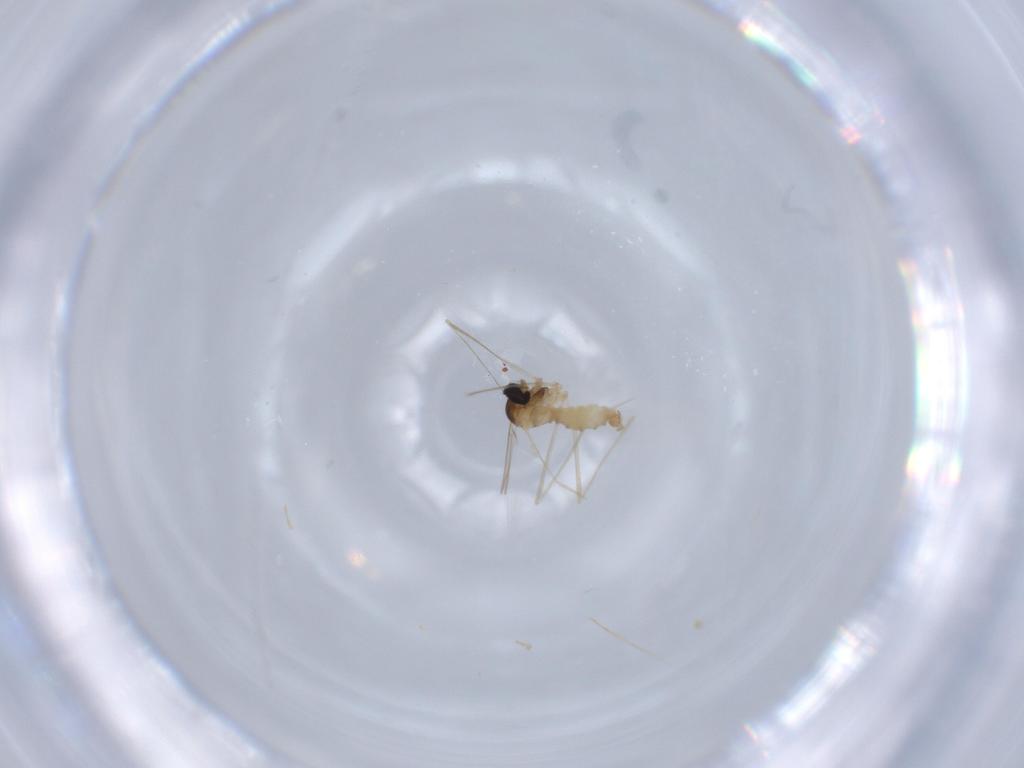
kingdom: Animalia
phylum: Arthropoda
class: Insecta
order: Diptera
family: Cecidomyiidae
